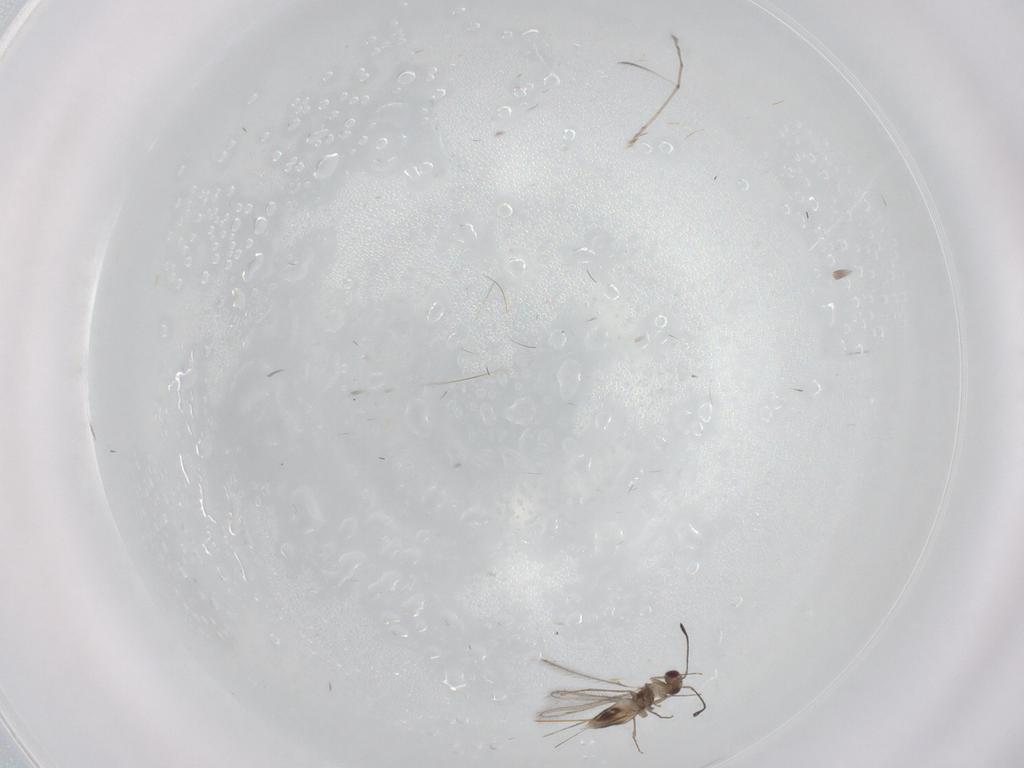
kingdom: Animalia
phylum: Arthropoda
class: Insecta
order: Hymenoptera
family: Mymaridae
